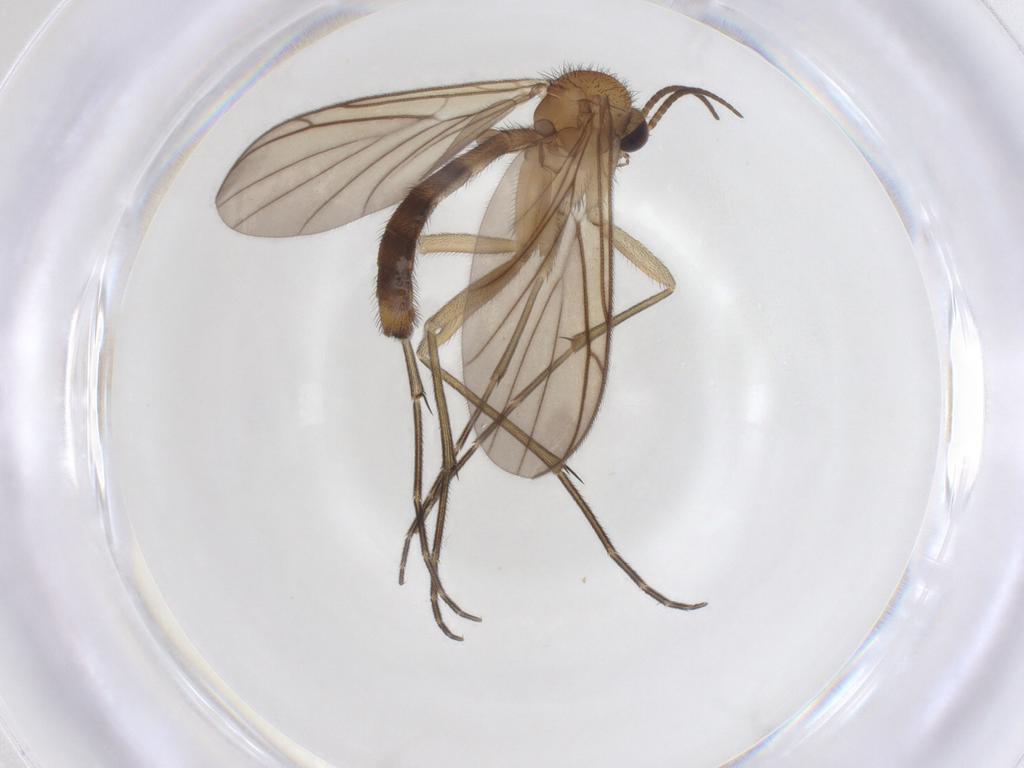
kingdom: Animalia
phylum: Arthropoda
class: Insecta
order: Diptera
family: Keroplatidae
